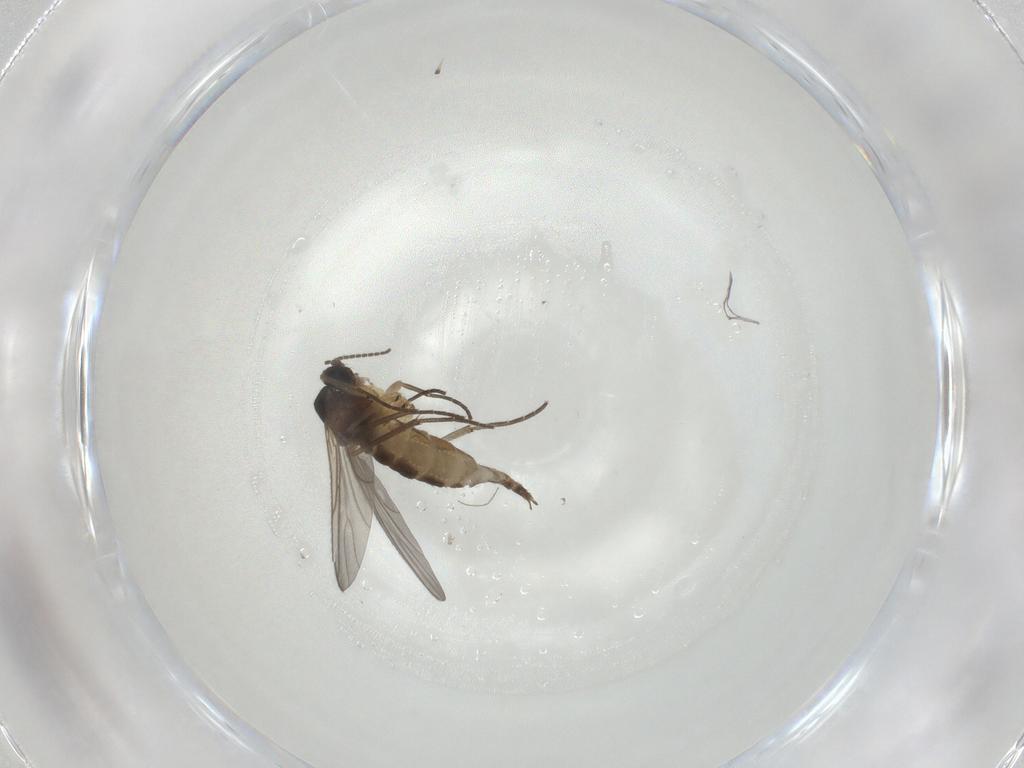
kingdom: Animalia
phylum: Arthropoda
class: Insecta
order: Diptera
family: Sciaridae
